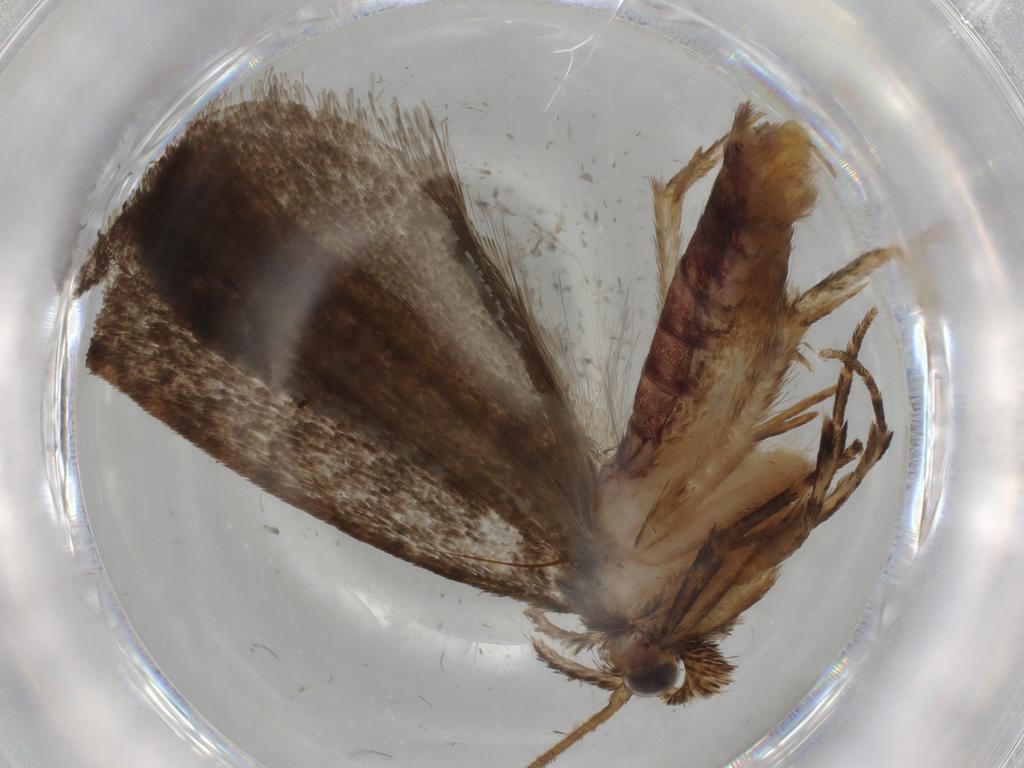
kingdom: Animalia
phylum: Arthropoda
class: Insecta
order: Lepidoptera
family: Tineidae
